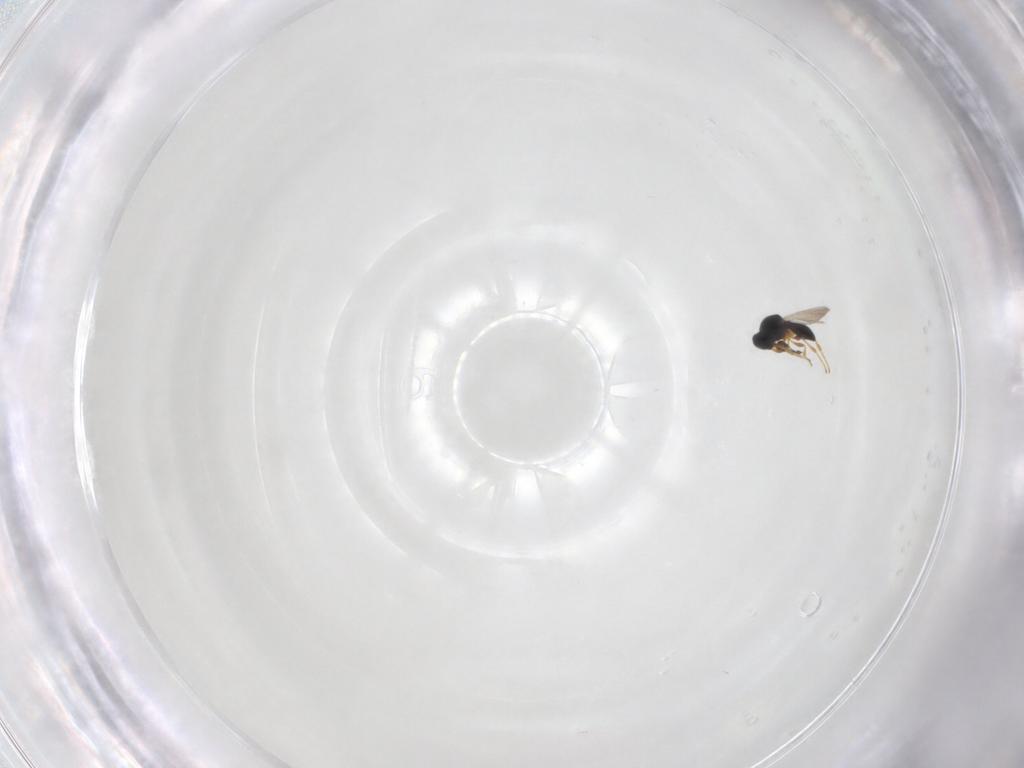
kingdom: Animalia
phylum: Arthropoda
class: Insecta
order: Hymenoptera
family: Platygastridae
